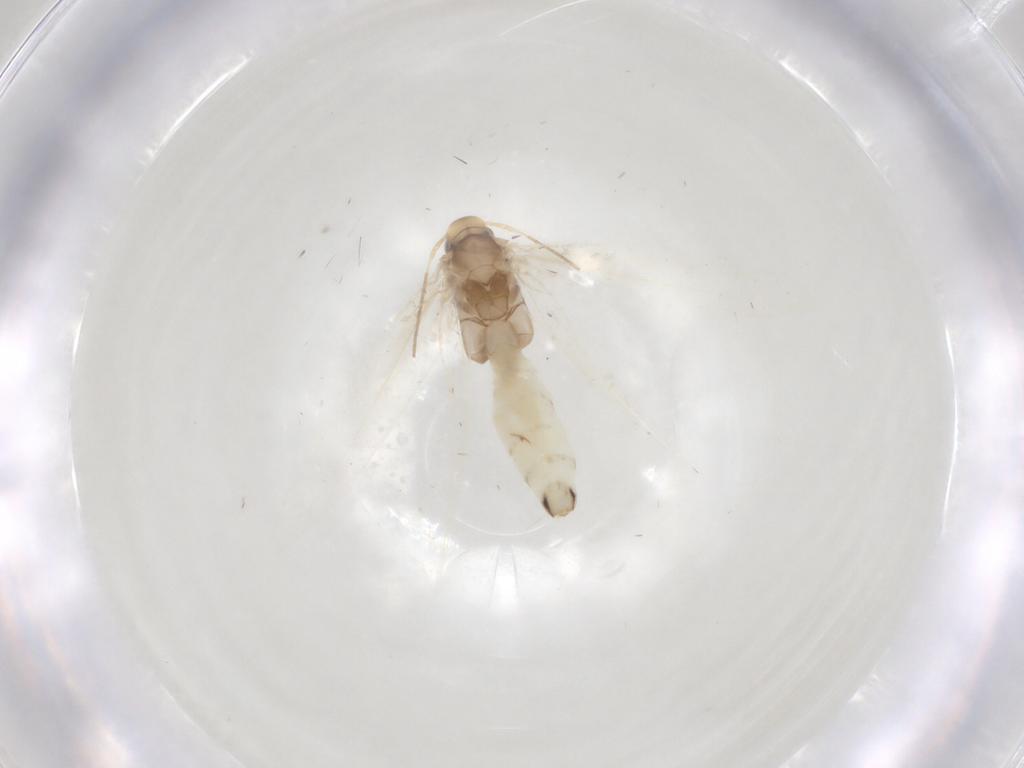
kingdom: Animalia
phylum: Arthropoda
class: Insecta
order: Lepidoptera
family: Gracillariidae
